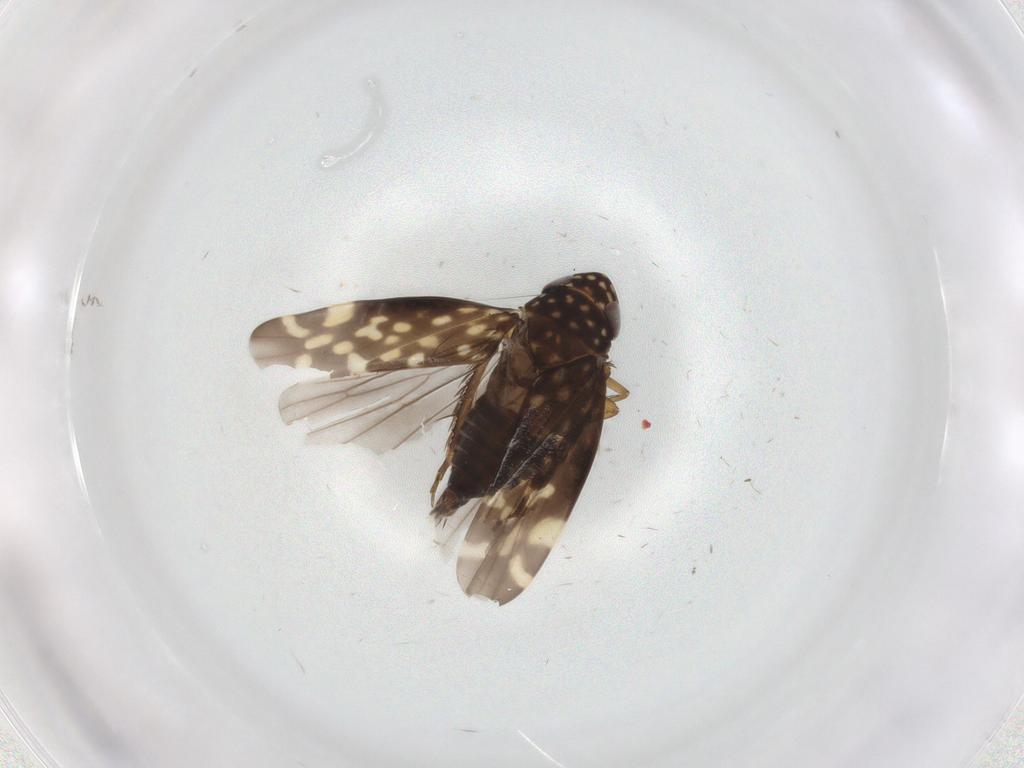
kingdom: Animalia
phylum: Arthropoda
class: Insecta
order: Hemiptera
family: Cicadellidae
